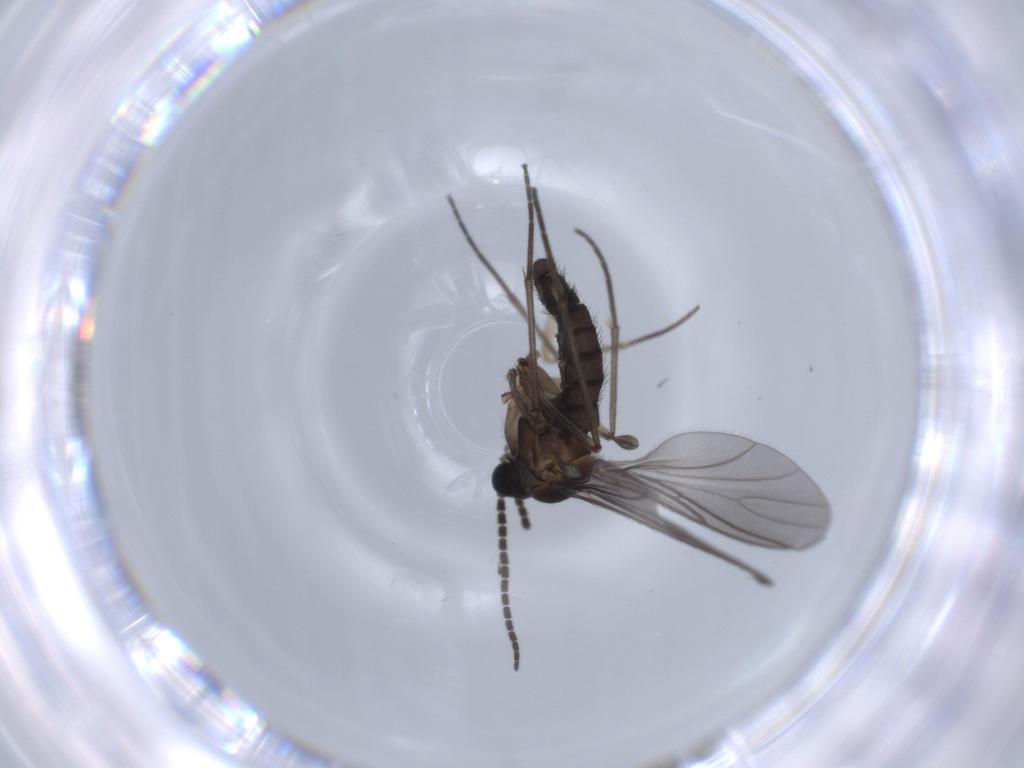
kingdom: Animalia
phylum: Arthropoda
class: Insecta
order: Diptera
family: Sciaridae
